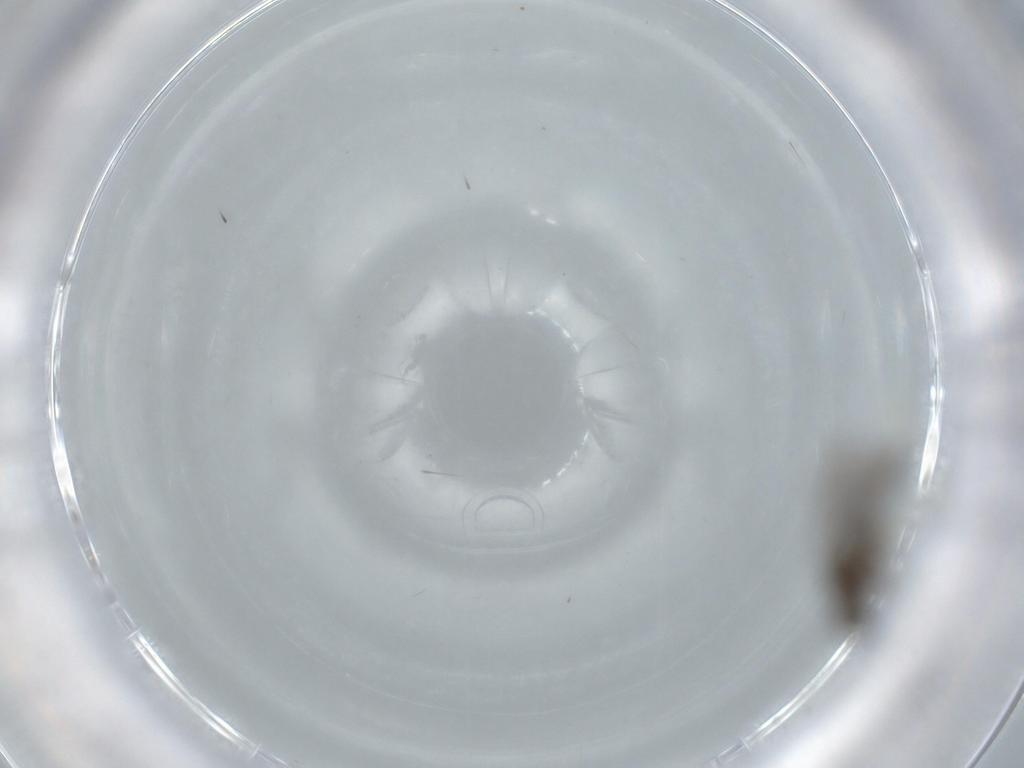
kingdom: Animalia
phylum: Arthropoda
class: Insecta
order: Diptera
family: Cecidomyiidae
